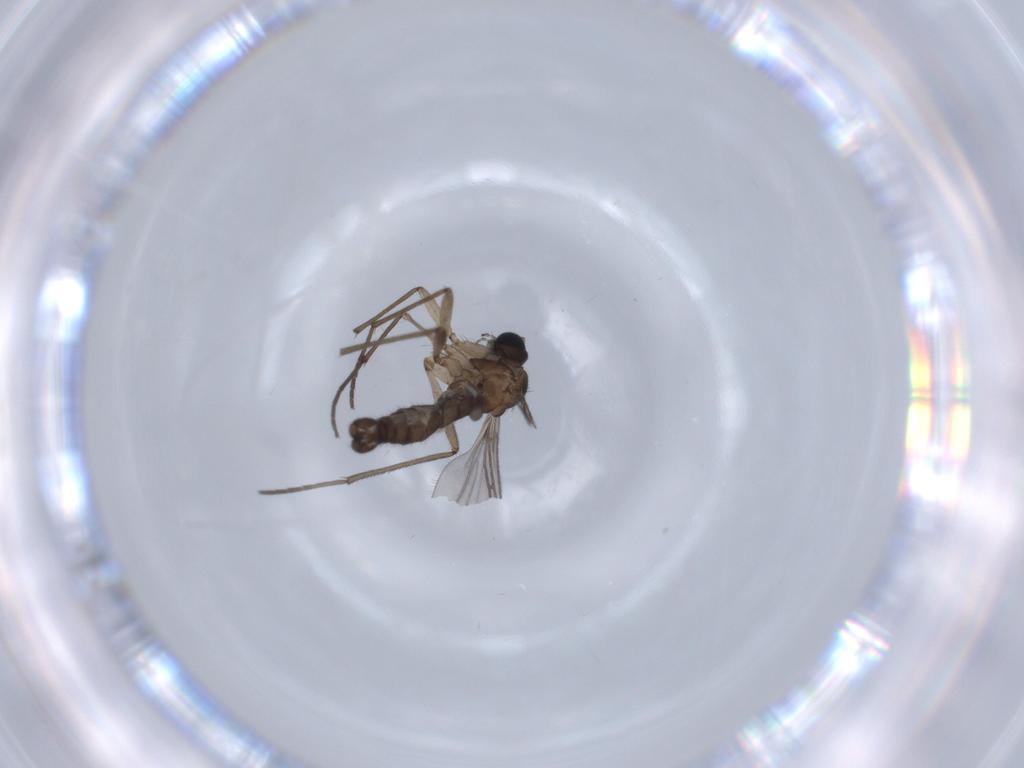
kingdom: Animalia
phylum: Arthropoda
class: Insecta
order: Diptera
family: Sciaridae
